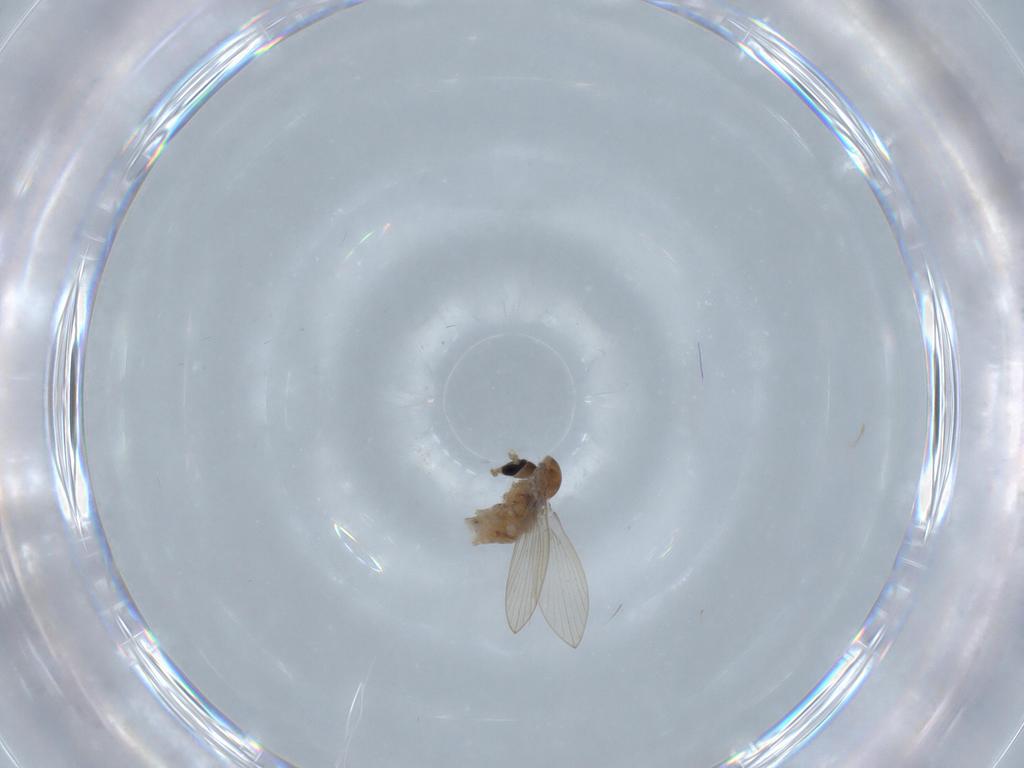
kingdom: Animalia
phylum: Arthropoda
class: Insecta
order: Diptera
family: Psychodidae
